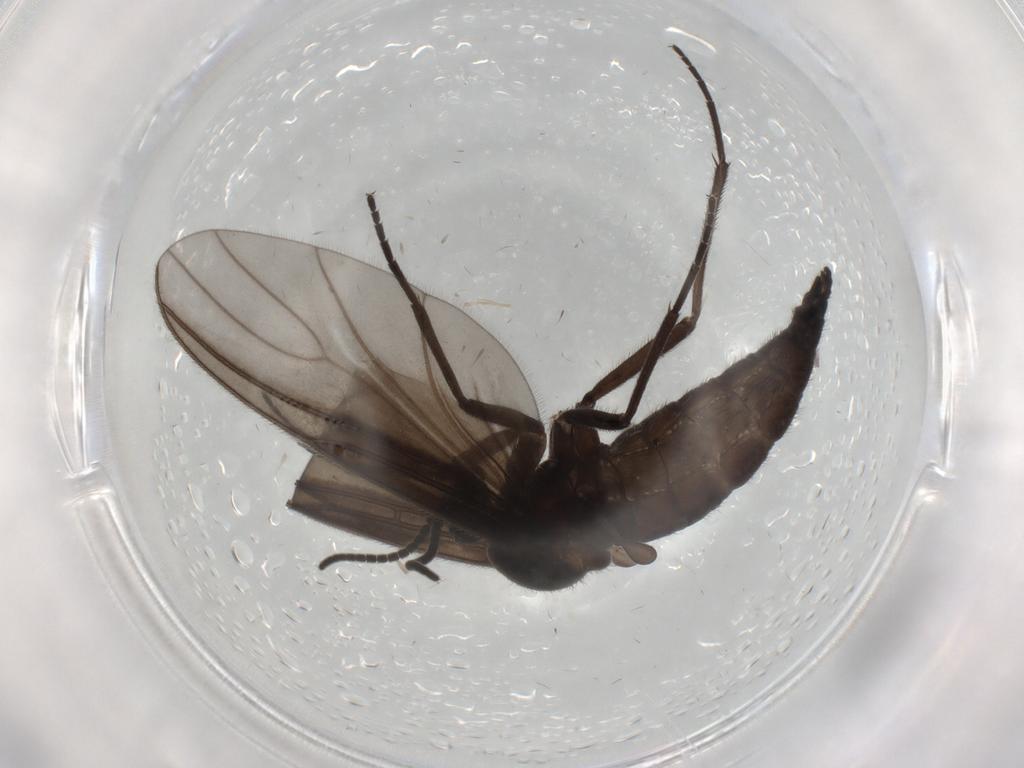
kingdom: Animalia
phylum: Arthropoda
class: Insecta
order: Diptera
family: Sciaridae
